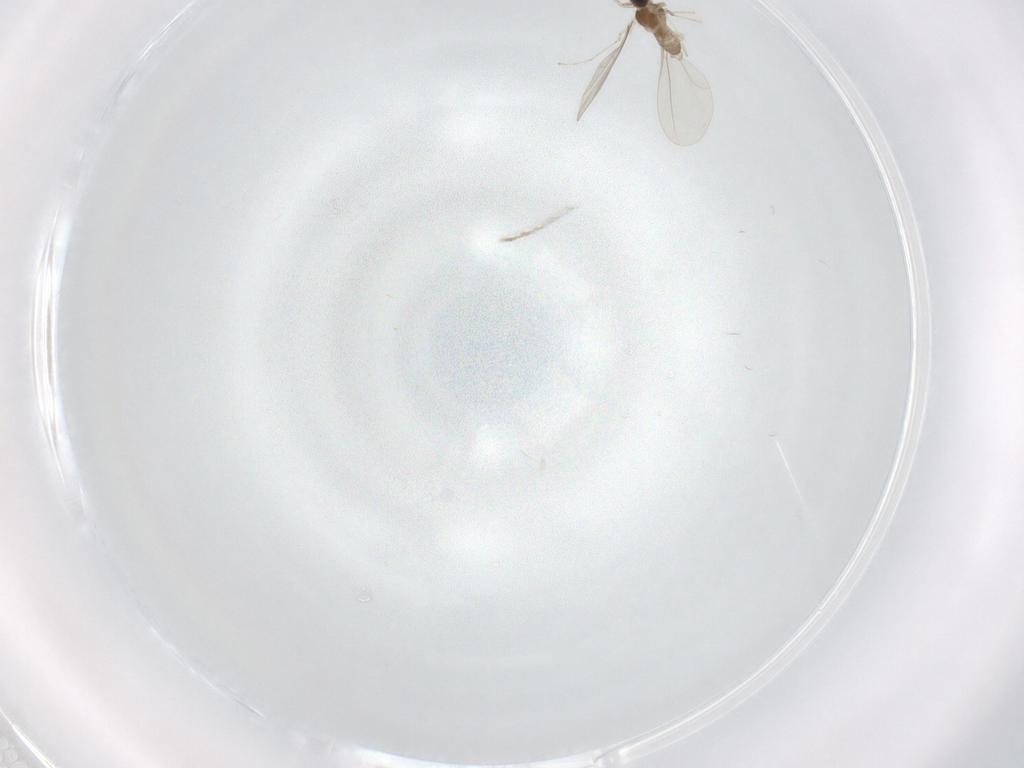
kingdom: Animalia
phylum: Arthropoda
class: Insecta
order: Diptera
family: Cecidomyiidae
